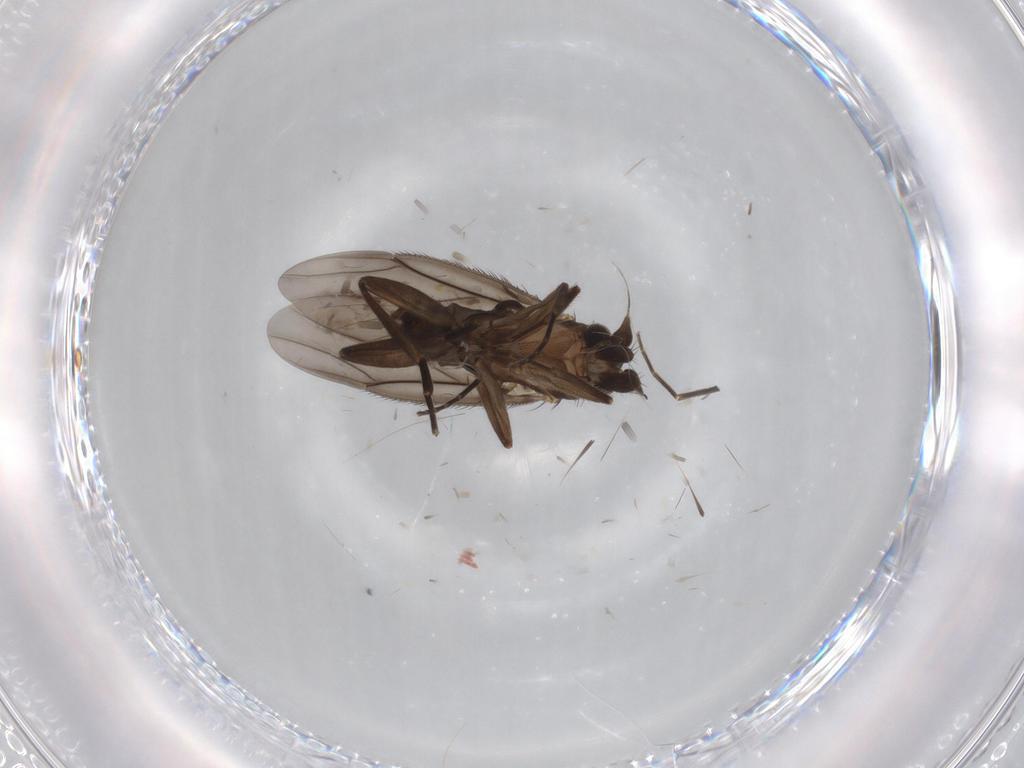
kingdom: Animalia
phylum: Arthropoda
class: Insecta
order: Diptera
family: Phoridae
